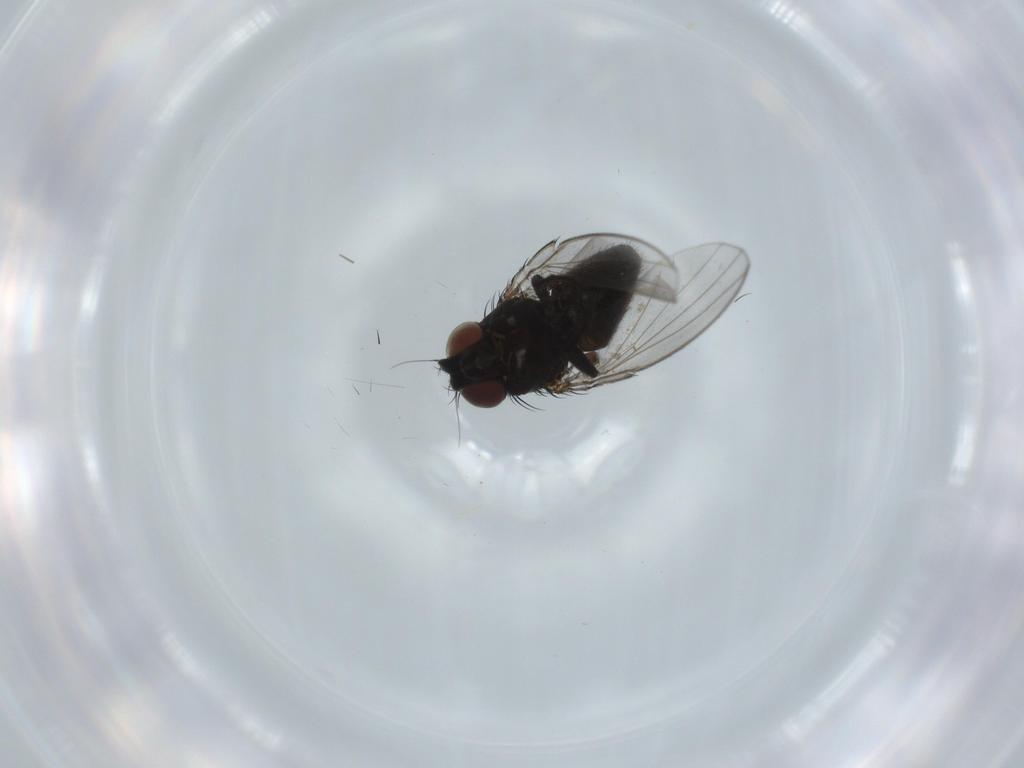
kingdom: Animalia
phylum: Arthropoda
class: Insecta
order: Diptera
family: Milichiidae
